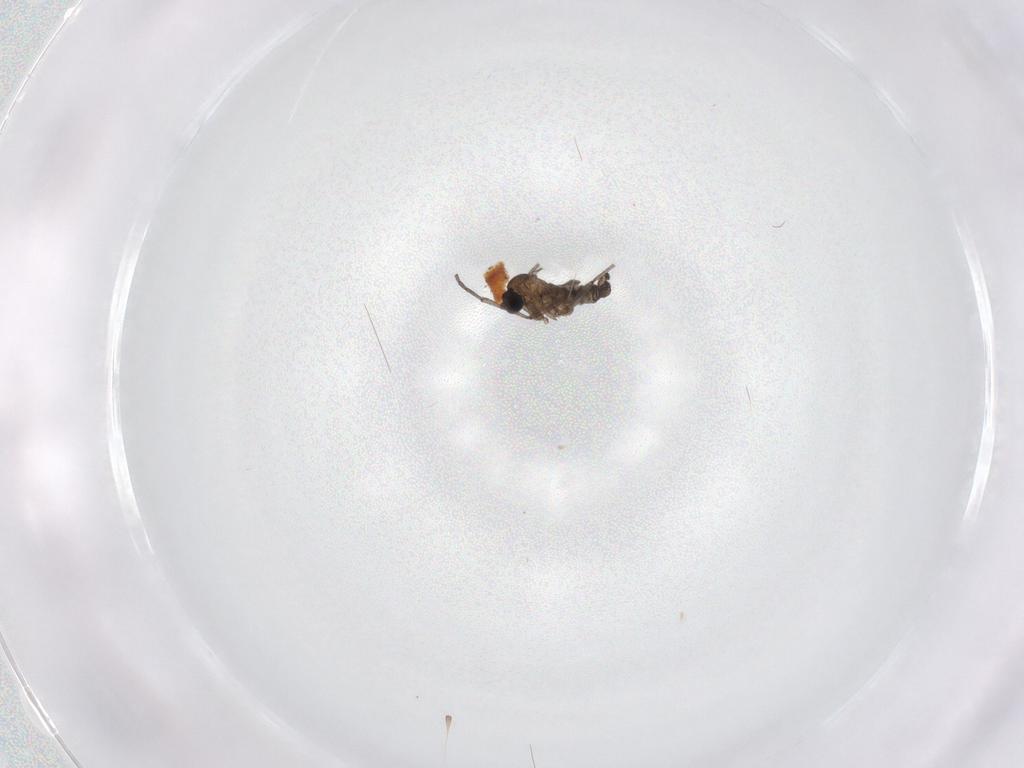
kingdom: Animalia
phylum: Arthropoda
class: Insecta
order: Diptera
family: Sciaridae
